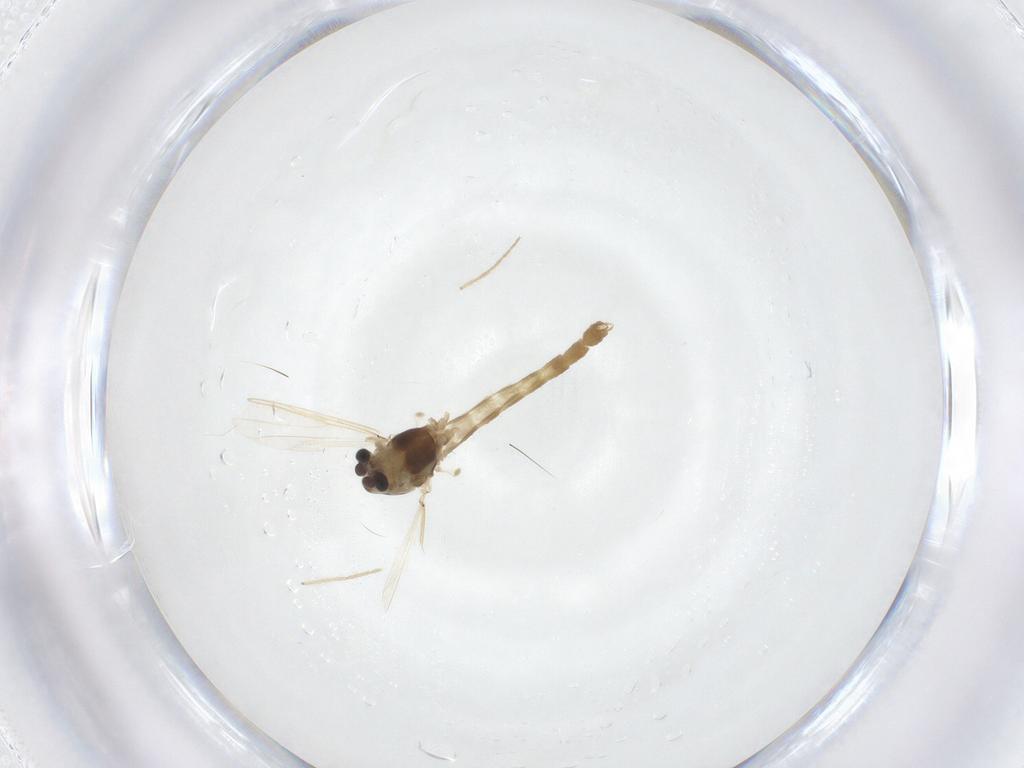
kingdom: Animalia
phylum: Arthropoda
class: Insecta
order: Diptera
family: Chironomidae
